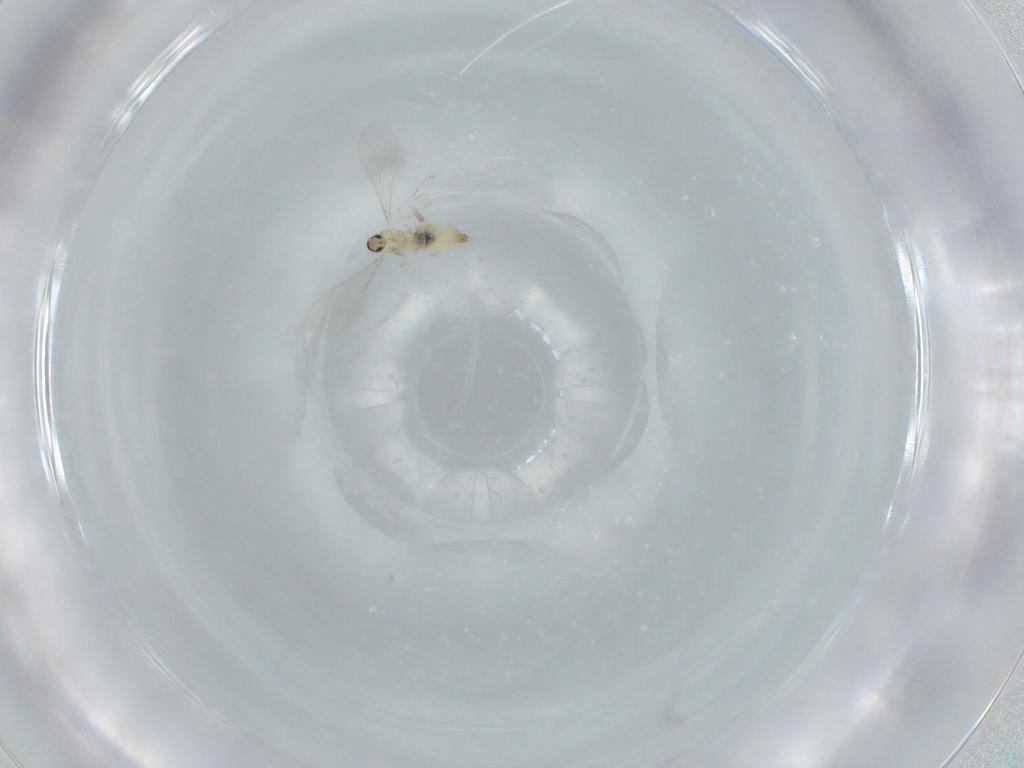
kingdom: Animalia
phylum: Arthropoda
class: Insecta
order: Diptera
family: Cecidomyiidae
